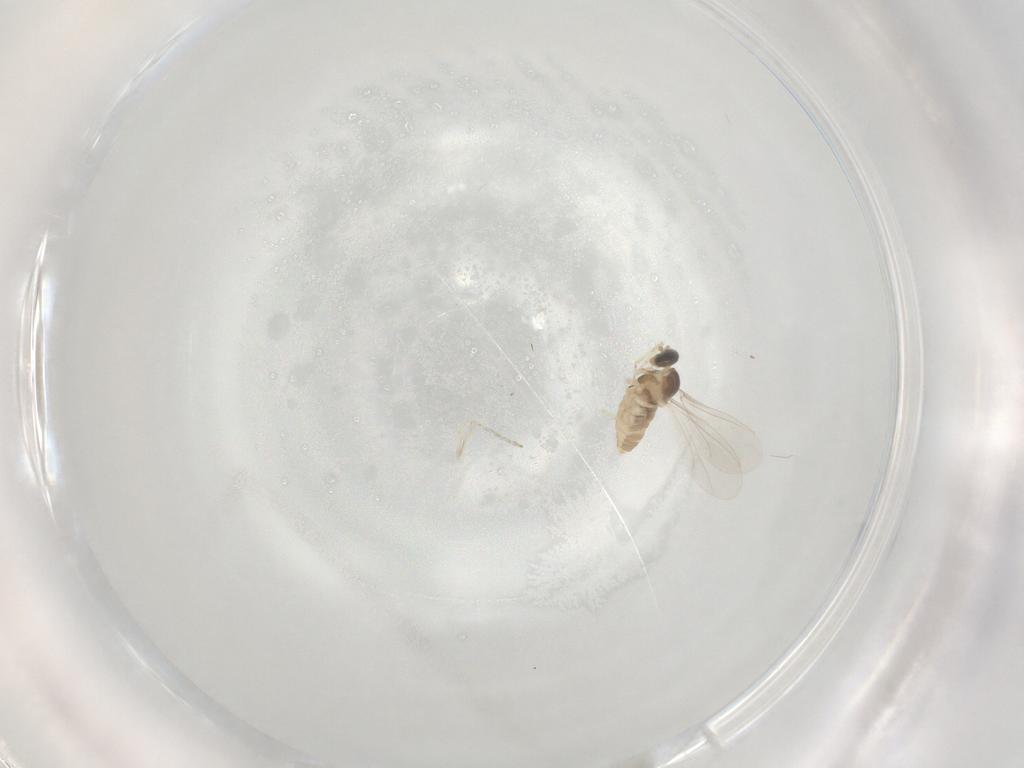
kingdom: Animalia
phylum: Arthropoda
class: Insecta
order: Diptera
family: Cecidomyiidae
